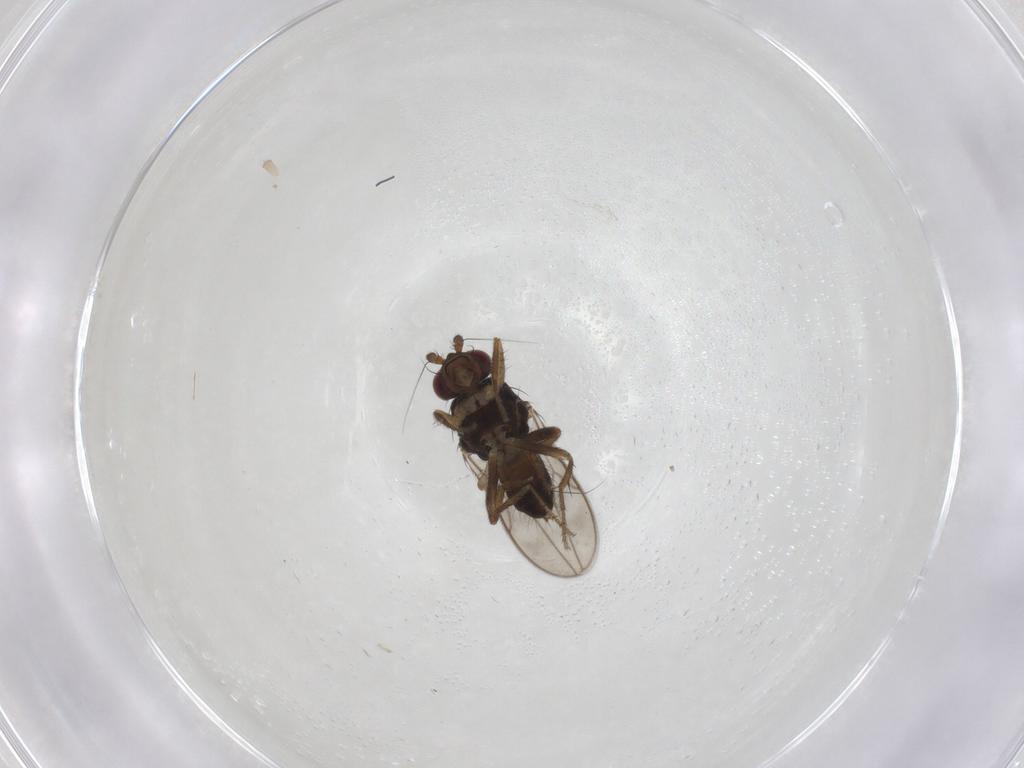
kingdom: Animalia
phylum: Arthropoda
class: Insecta
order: Diptera
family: Sphaeroceridae
